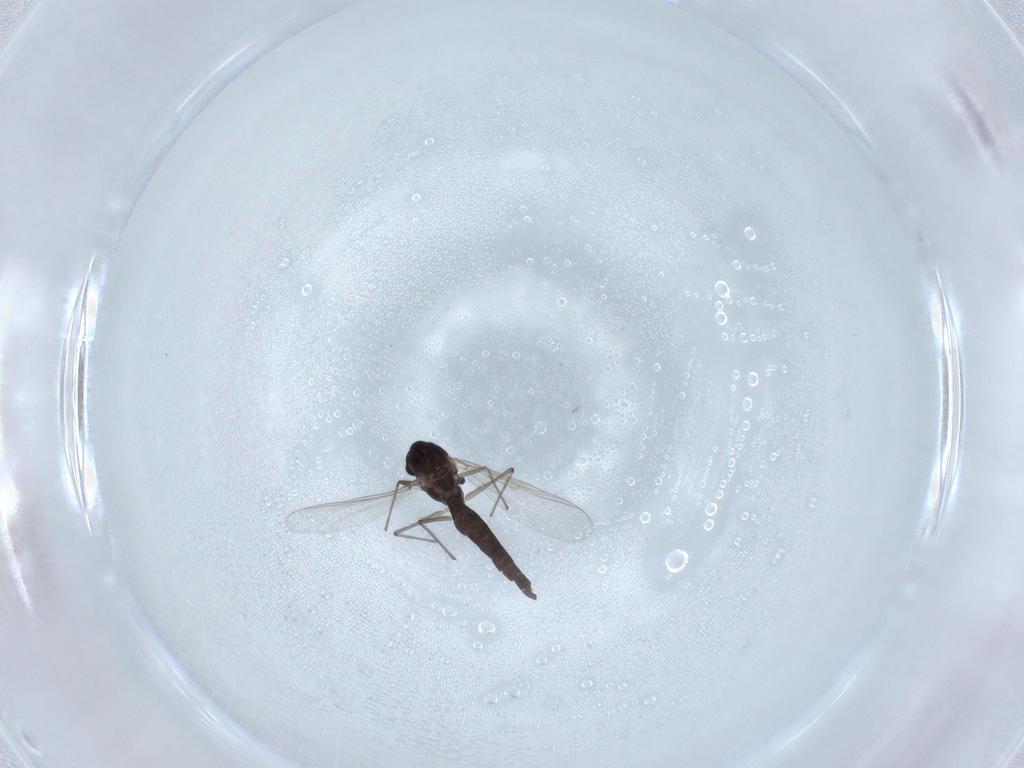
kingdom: Animalia
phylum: Arthropoda
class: Insecta
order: Diptera
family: Chironomidae
